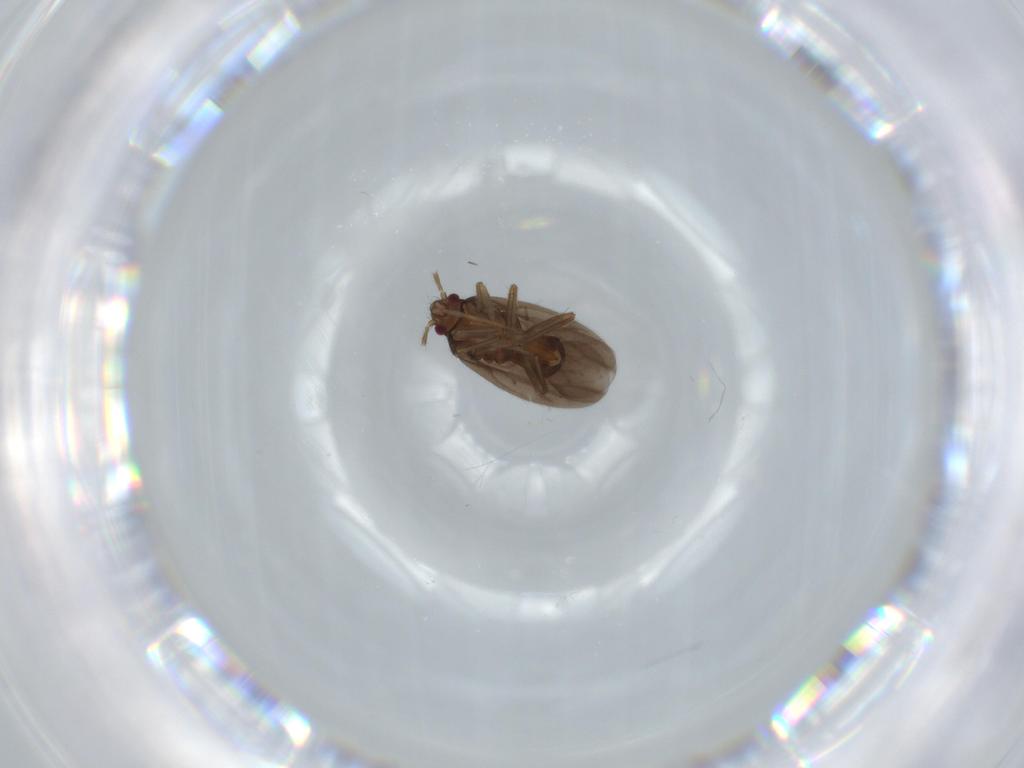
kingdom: Animalia
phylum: Arthropoda
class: Insecta
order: Hemiptera
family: Ceratocombidae
